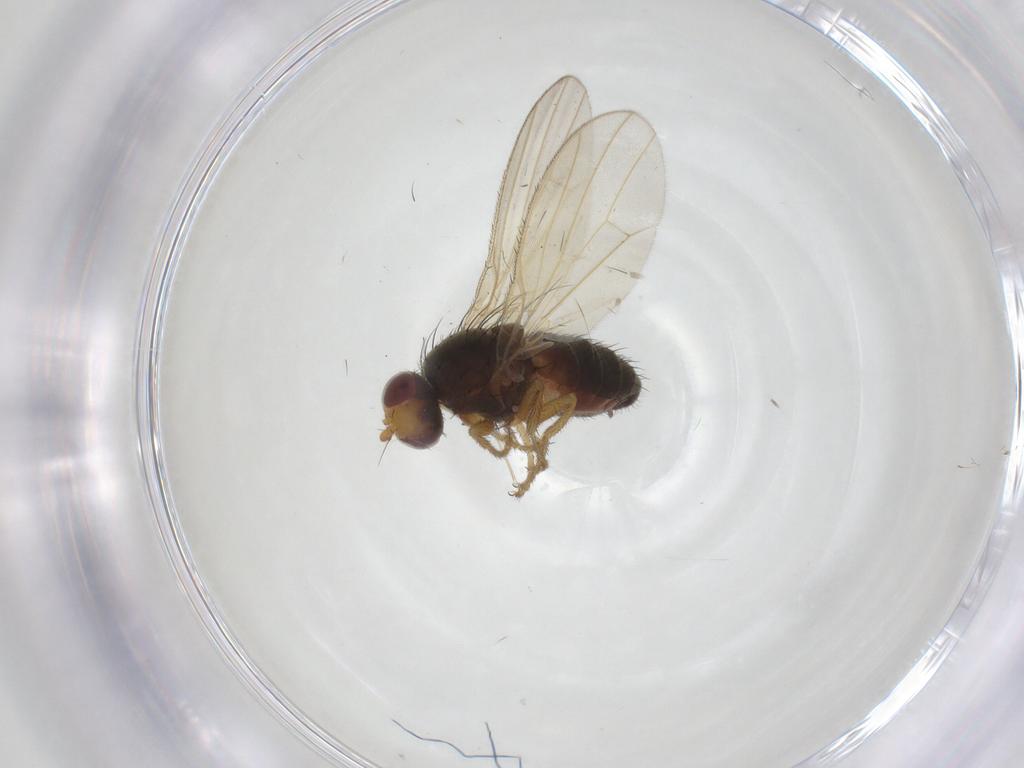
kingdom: Animalia
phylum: Arthropoda
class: Insecta
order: Diptera
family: Heleomyzidae
